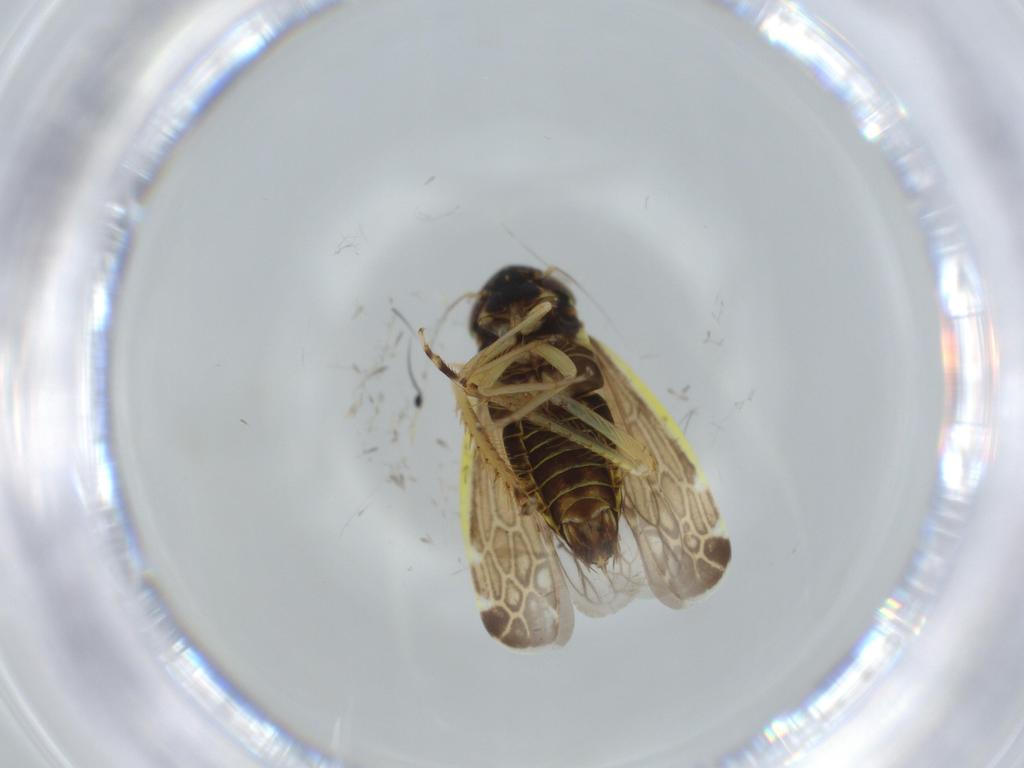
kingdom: Animalia
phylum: Arthropoda
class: Insecta
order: Hemiptera
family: Cicadellidae
